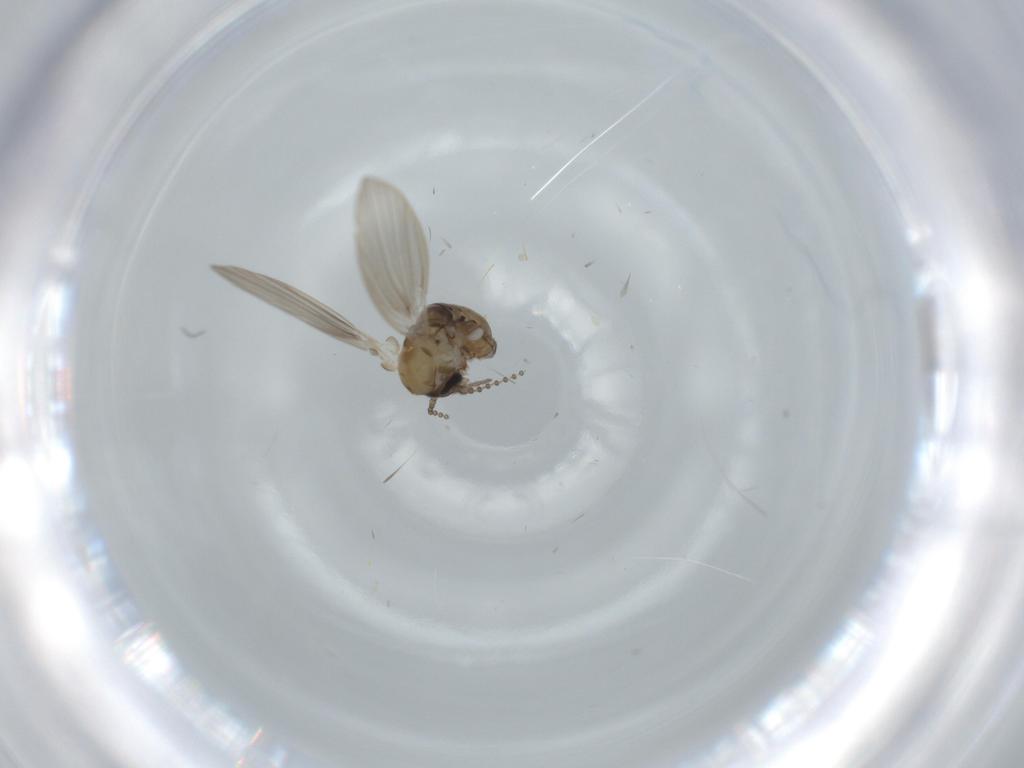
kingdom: Animalia
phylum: Arthropoda
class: Insecta
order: Diptera
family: Psychodidae
